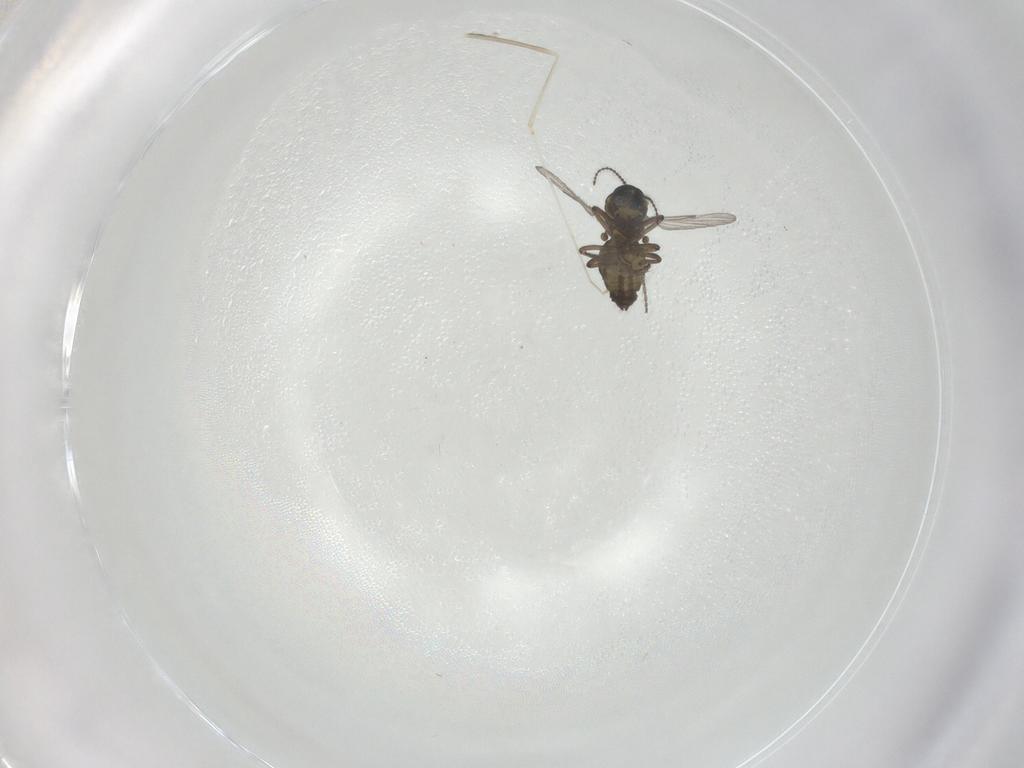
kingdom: Animalia
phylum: Arthropoda
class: Insecta
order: Diptera
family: Ceratopogonidae
